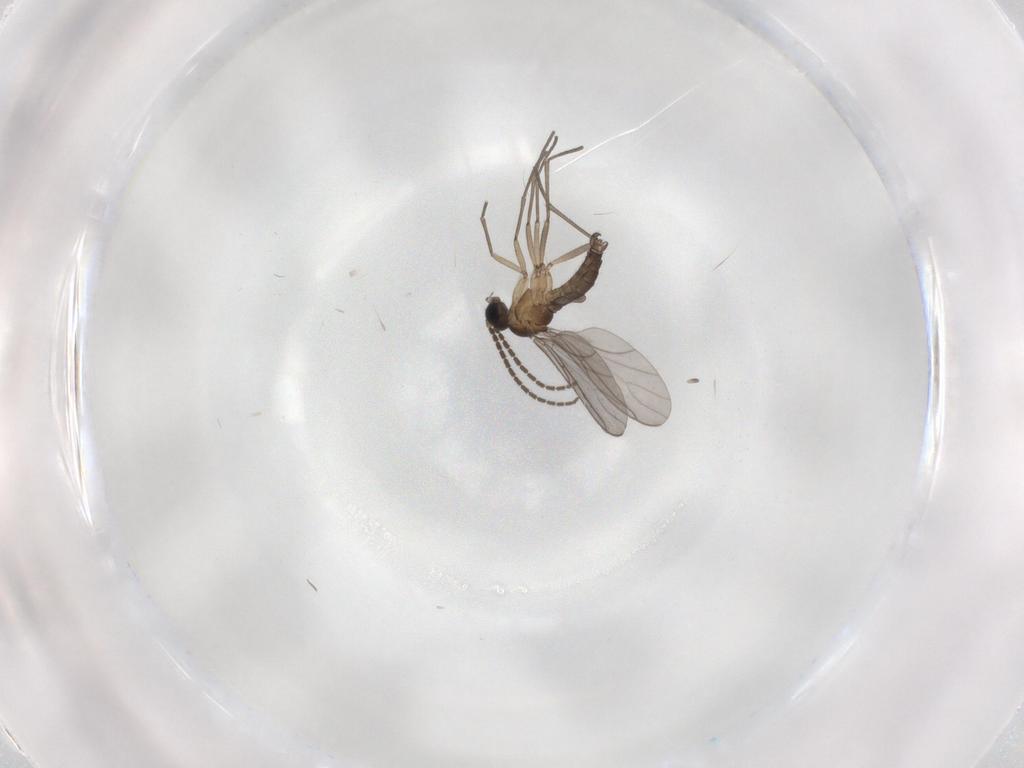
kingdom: Animalia
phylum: Arthropoda
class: Insecta
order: Diptera
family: Sciaridae
